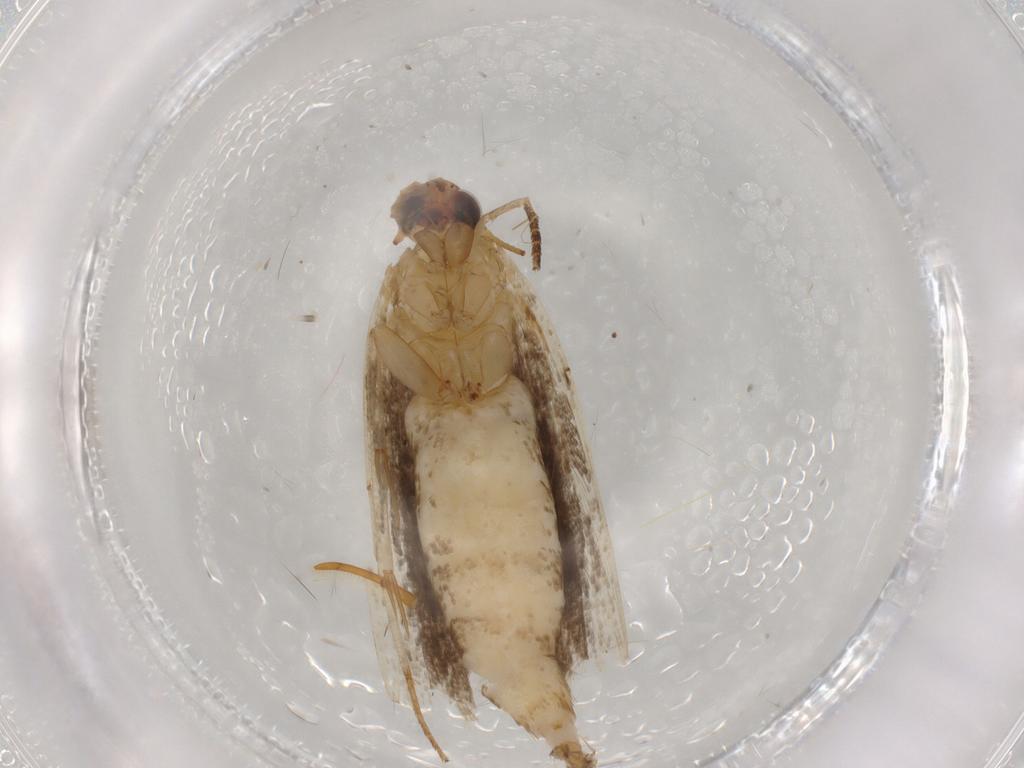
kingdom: Animalia
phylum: Arthropoda
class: Insecta
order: Lepidoptera
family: Gelechiidae
